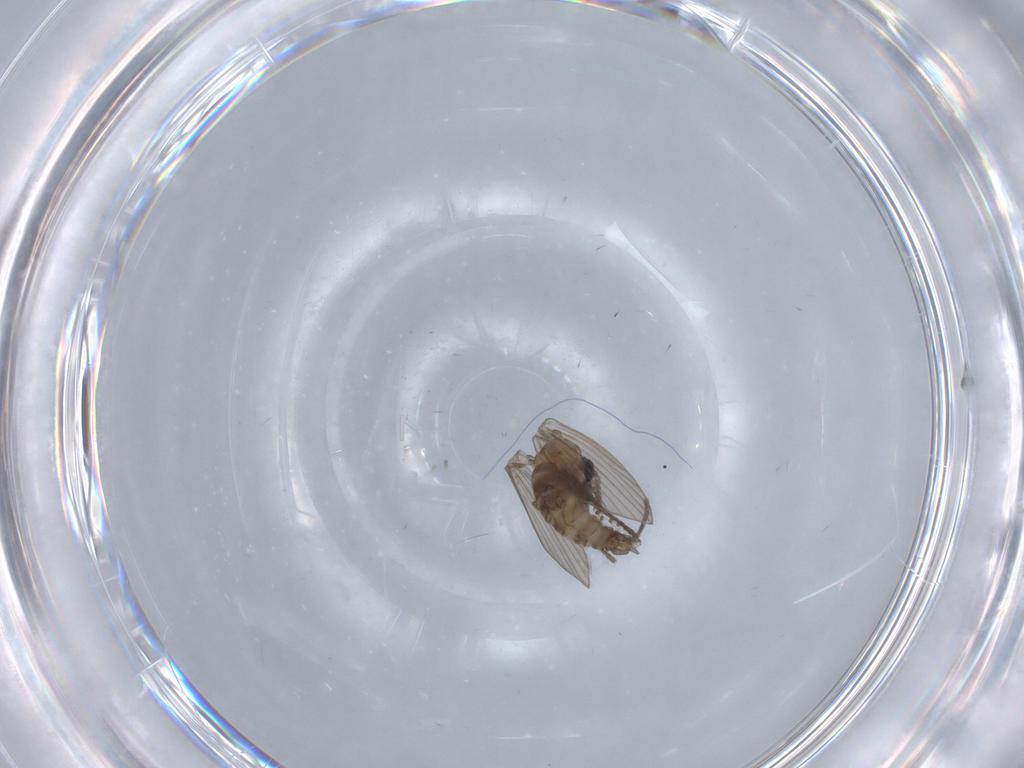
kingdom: Animalia
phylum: Arthropoda
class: Insecta
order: Diptera
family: Psychodidae
